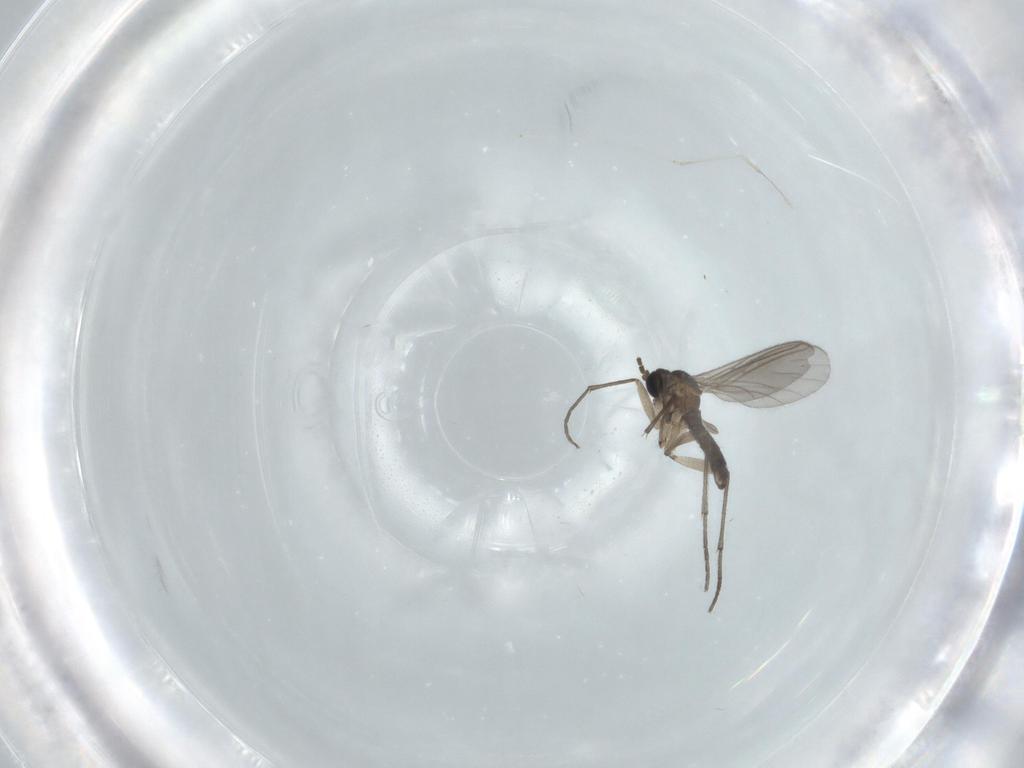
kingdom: Animalia
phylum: Arthropoda
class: Insecta
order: Diptera
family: Sciaridae
